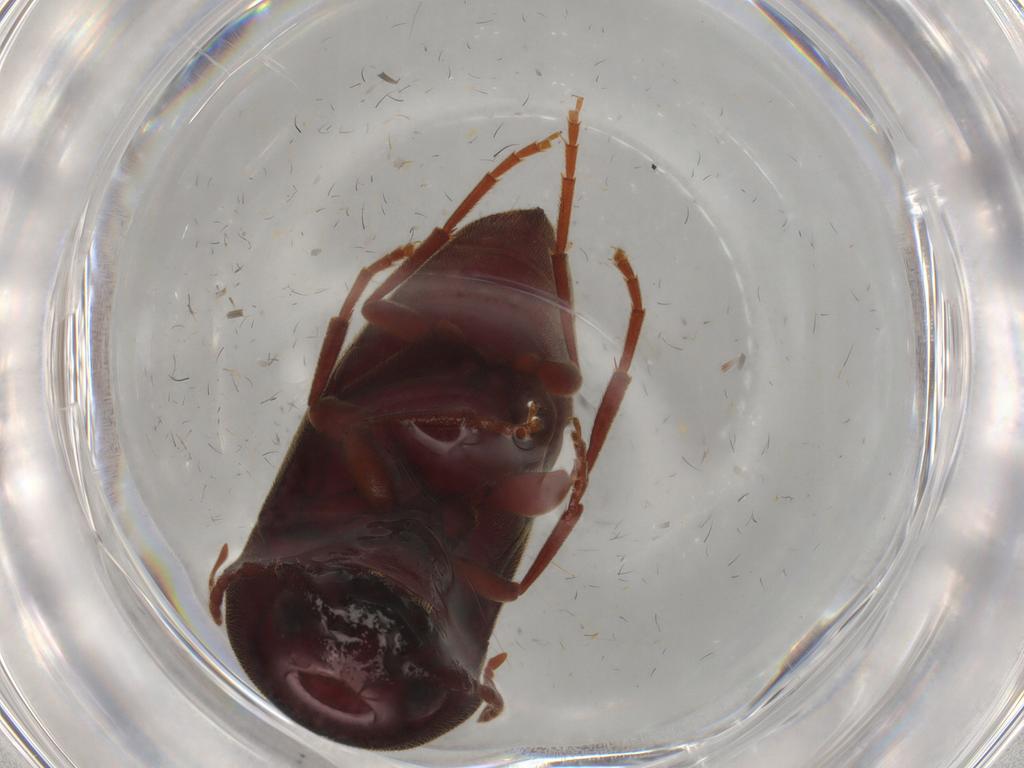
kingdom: Animalia
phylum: Arthropoda
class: Insecta
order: Coleoptera
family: Eucnemidae
